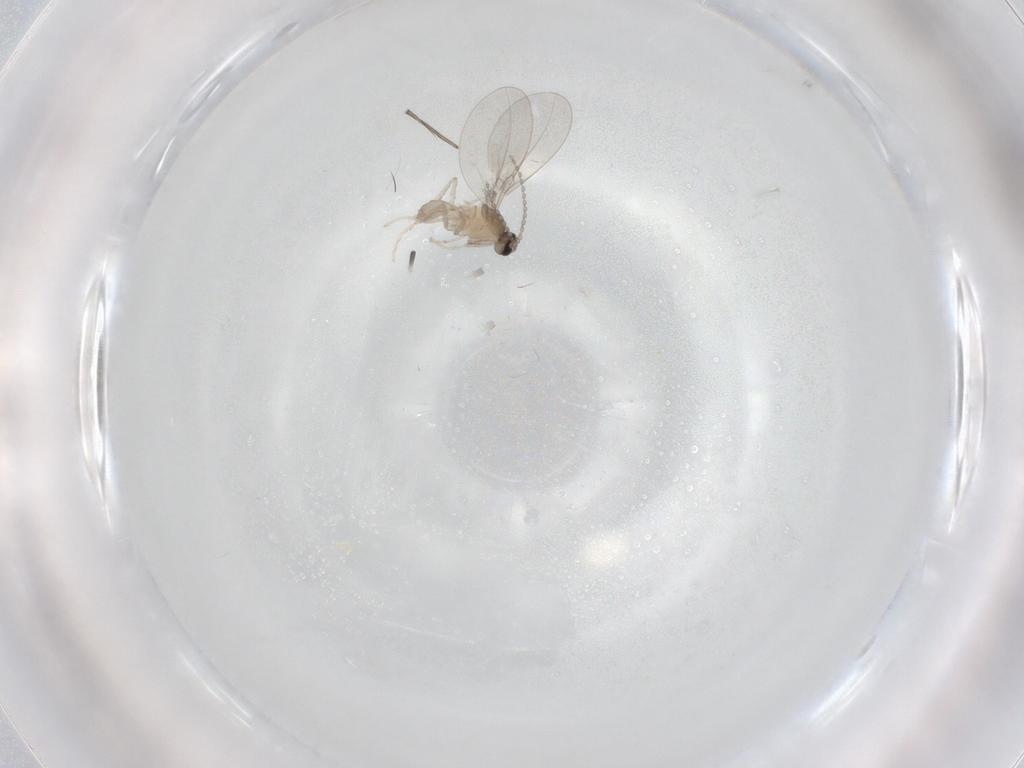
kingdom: Animalia
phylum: Arthropoda
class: Insecta
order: Diptera
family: Cecidomyiidae
